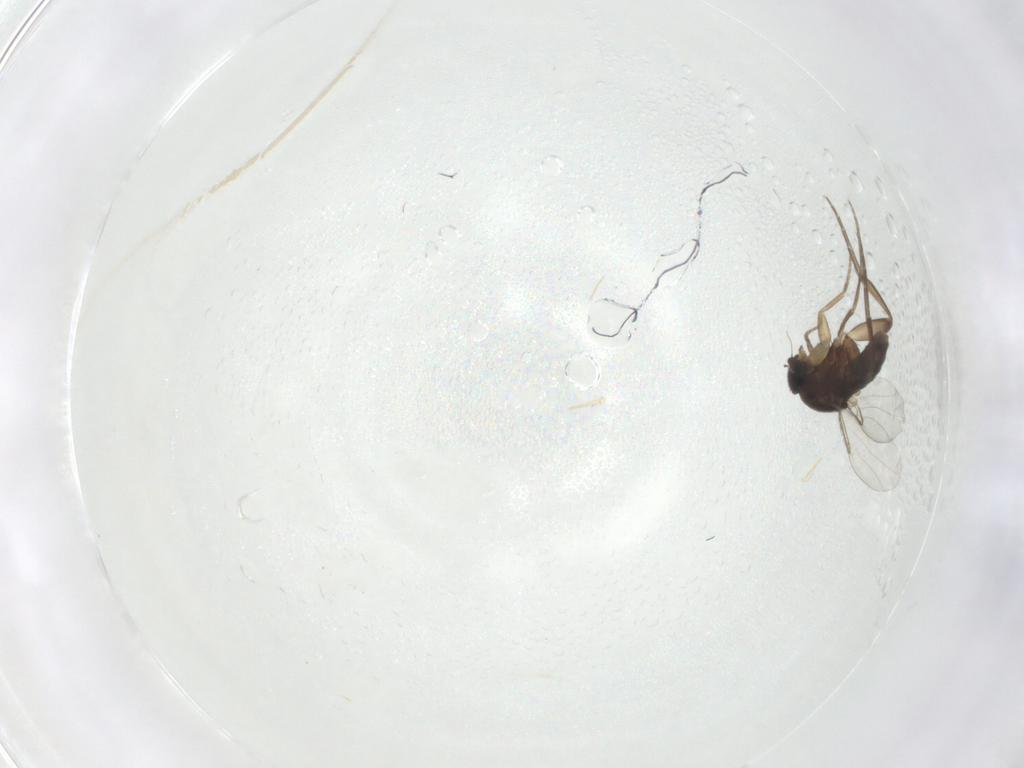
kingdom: Animalia
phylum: Arthropoda
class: Insecta
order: Diptera
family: Phoridae
